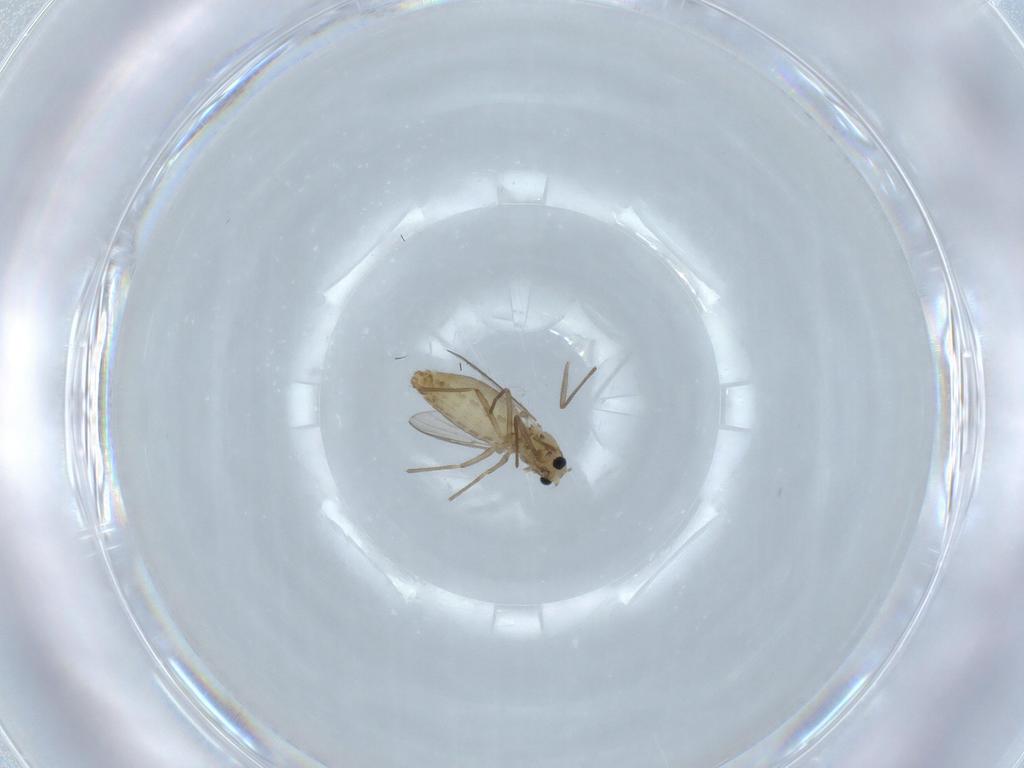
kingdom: Animalia
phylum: Arthropoda
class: Insecta
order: Diptera
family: Chironomidae
